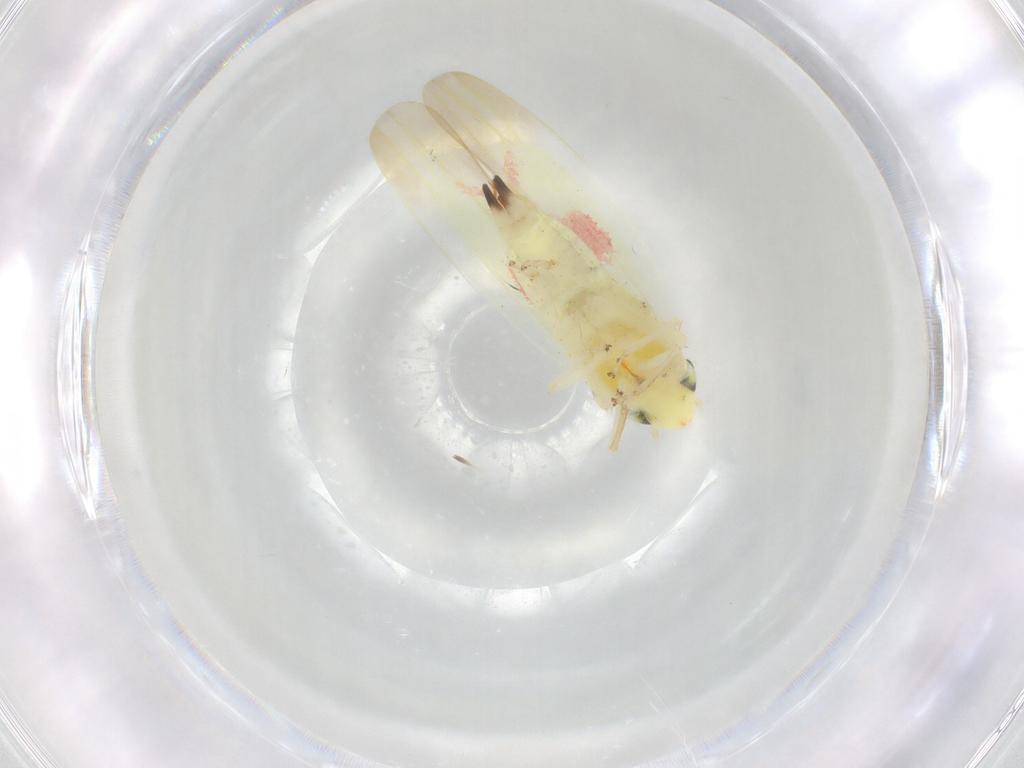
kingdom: Animalia
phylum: Arthropoda
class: Insecta
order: Hemiptera
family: Cicadellidae
